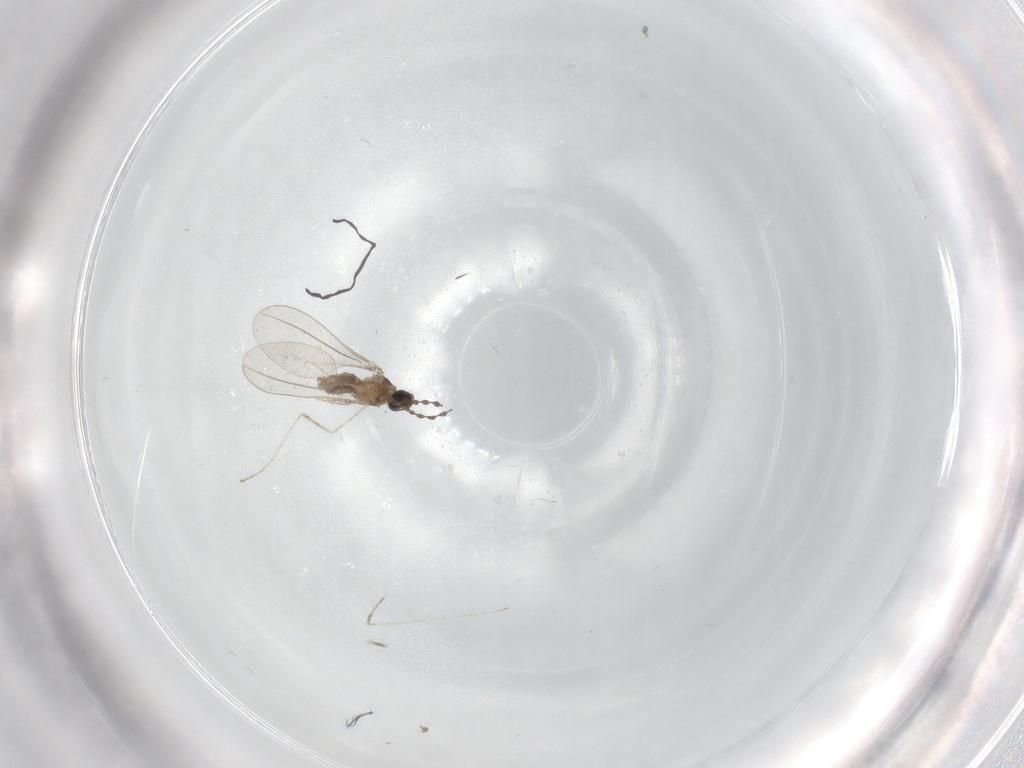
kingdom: Animalia
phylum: Arthropoda
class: Insecta
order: Diptera
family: Cecidomyiidae
